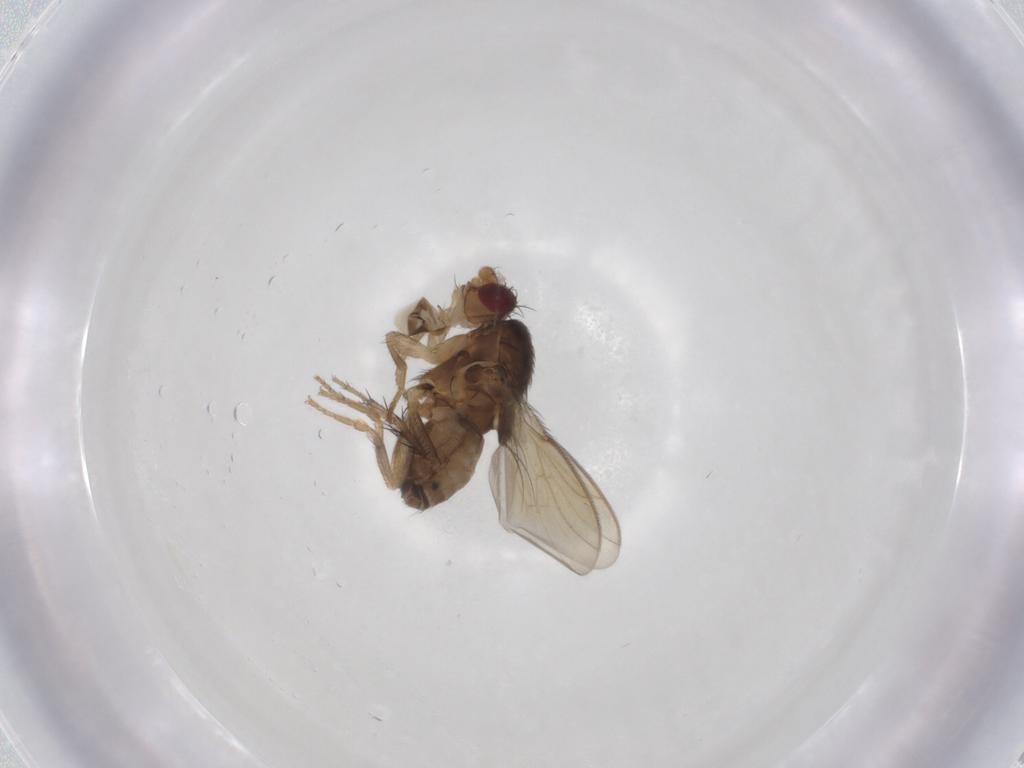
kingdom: Animalia
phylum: Arthropoda
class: Insecta
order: Diptera
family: Sphaeroceridae
